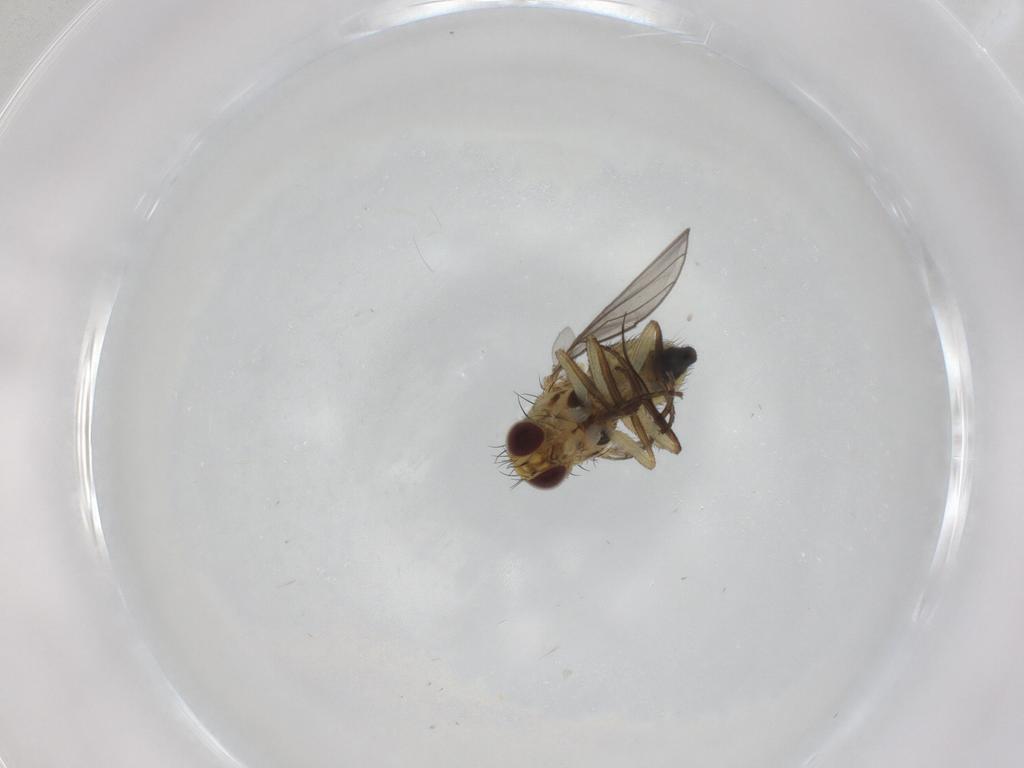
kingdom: Animalia
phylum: Arthropoda
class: Insecta
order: Diptera
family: Agromyzidae
